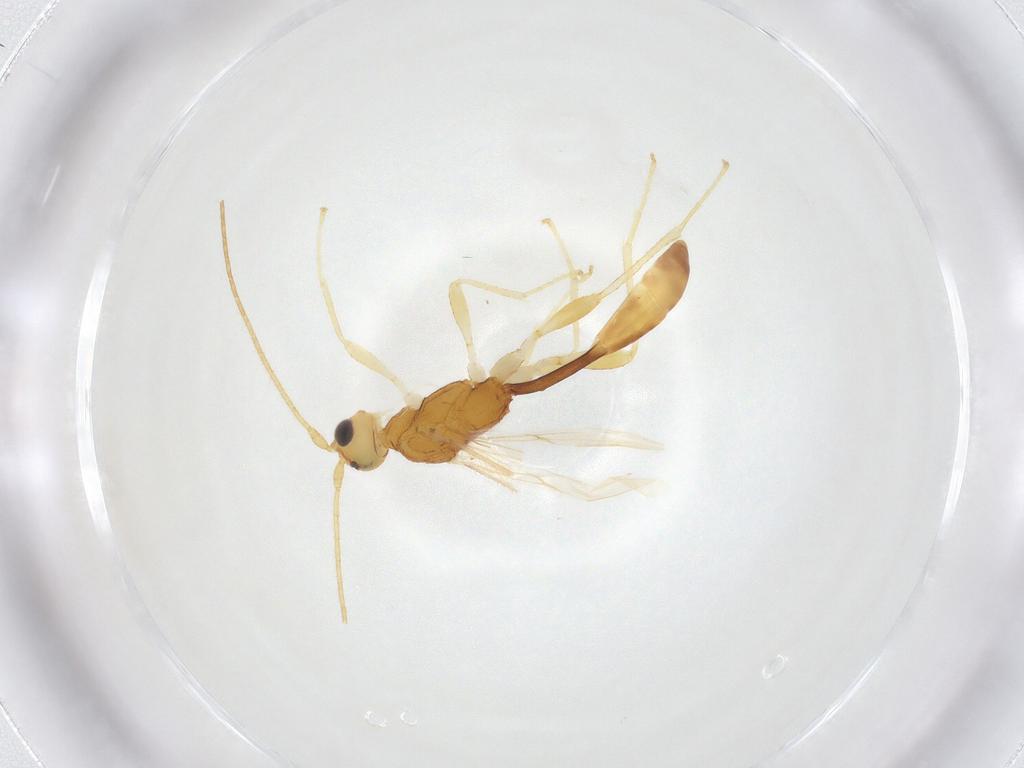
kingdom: Animalia
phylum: Arthropoda
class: Insecta
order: Hymenoptera
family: Braconidae
